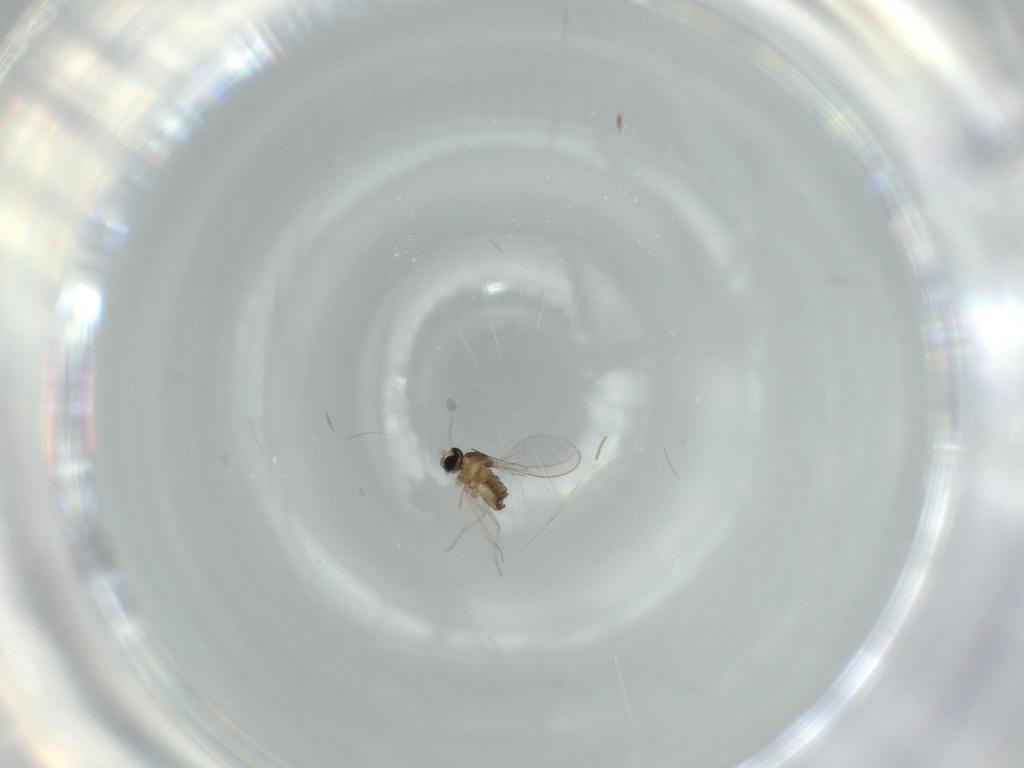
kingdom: Animalia
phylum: Arthropoda
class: Insecta
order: Diptera
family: Cecidomyiidae
